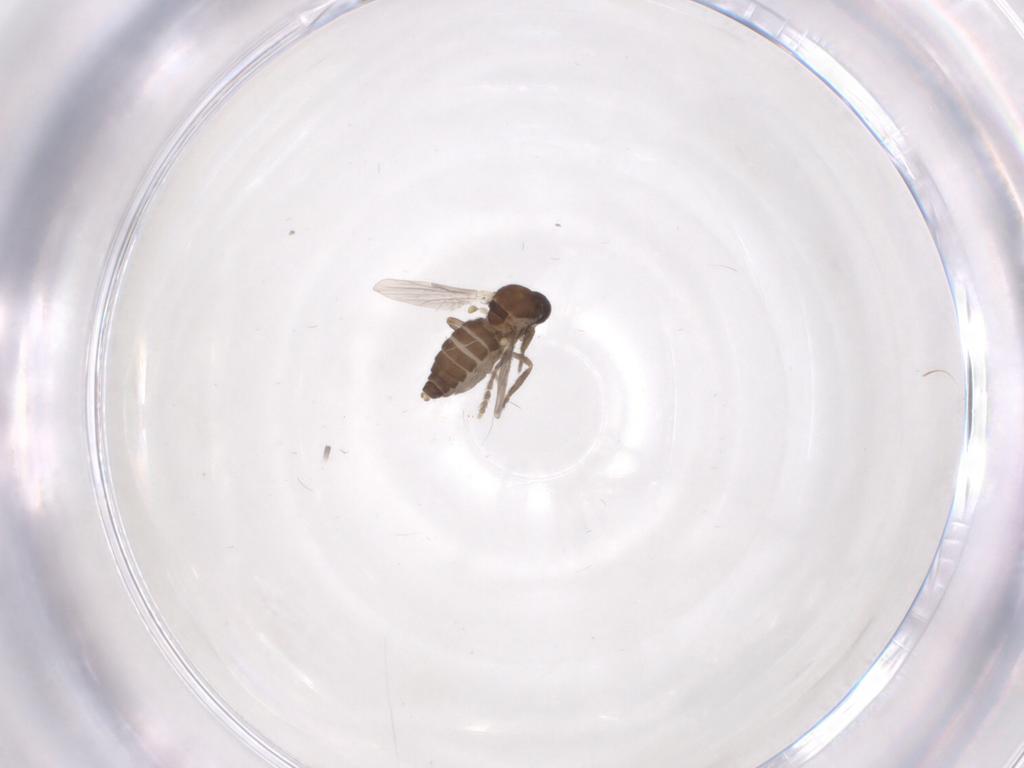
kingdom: Animalia
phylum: Arthropoda
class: Insecta
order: Diptera
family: Ceratopogonidae
